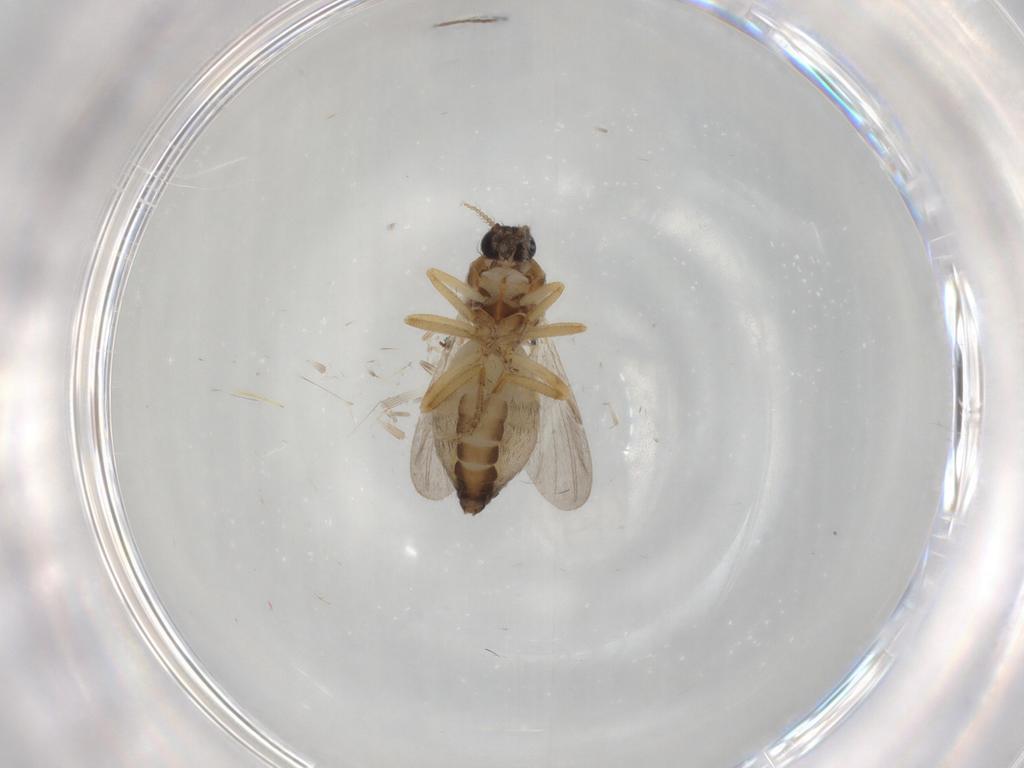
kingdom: Animalia
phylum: Arthropoda
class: Insecta
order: Diptera
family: Ceratopogonidae
